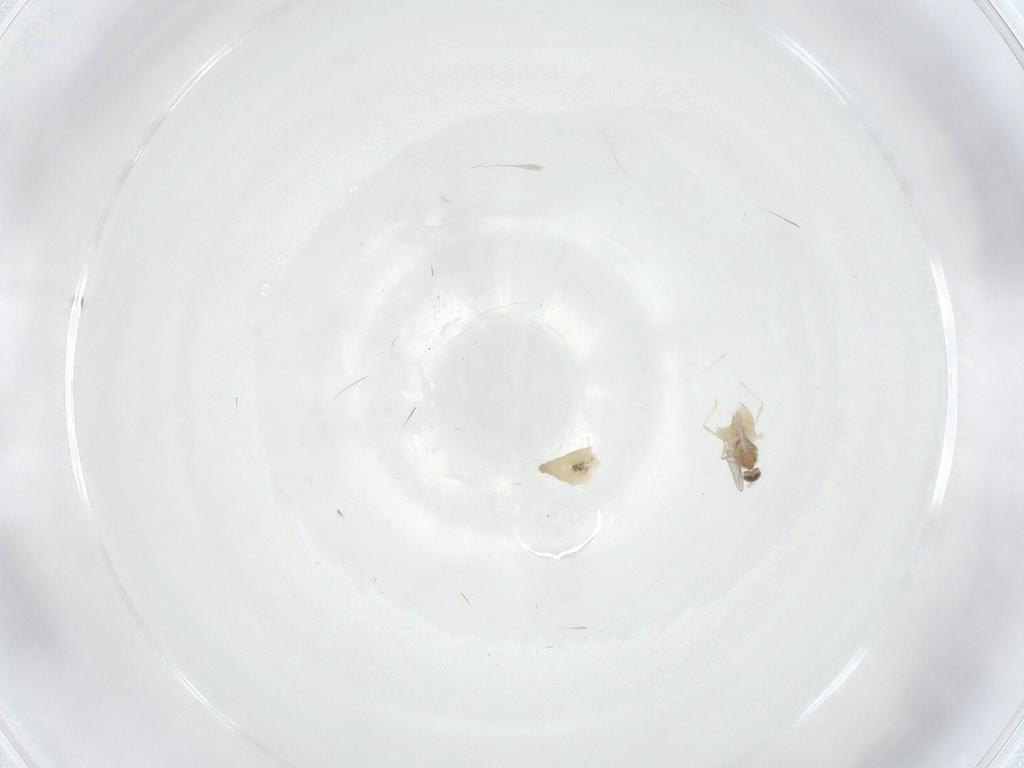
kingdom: Animalia
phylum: Arthropoda
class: Insecta
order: Diptera
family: Cecidomyiidae
